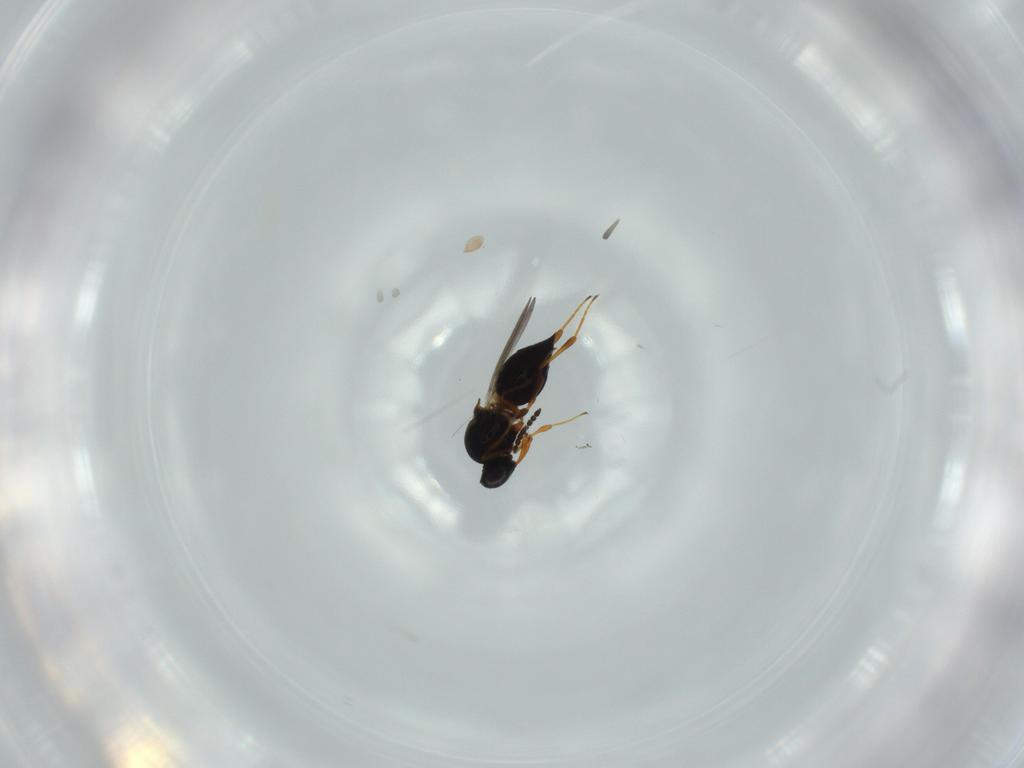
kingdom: Animalia
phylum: Arthropoda
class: Insecta
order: Hymenoptera
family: Platygastridae
